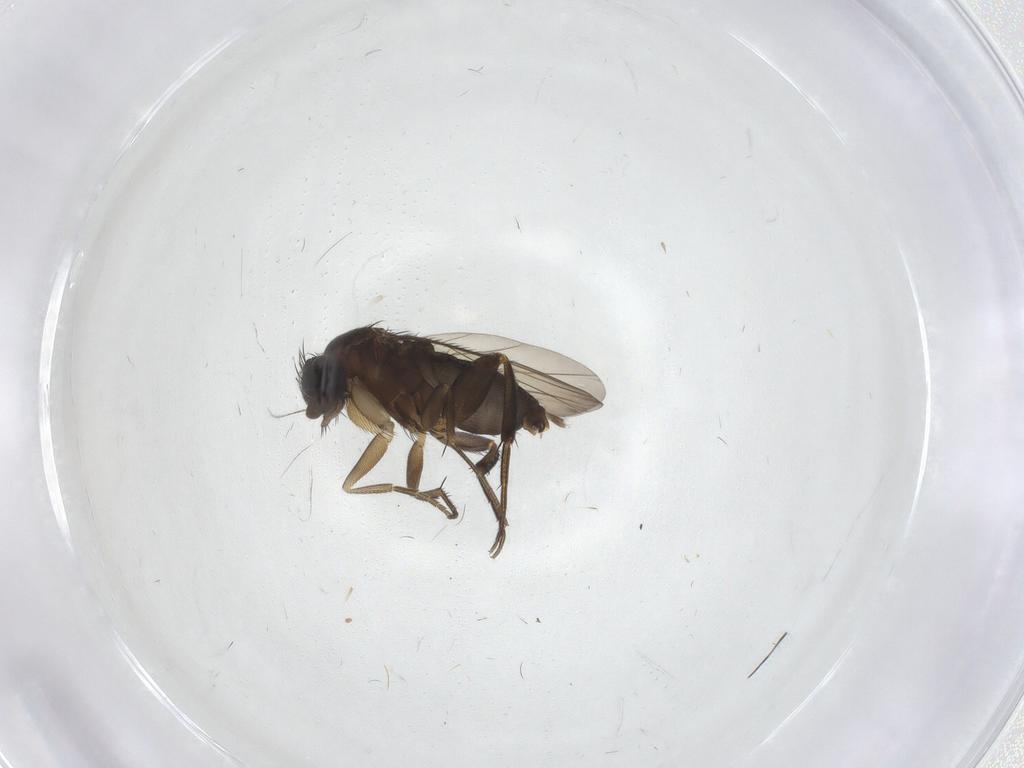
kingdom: Animalia
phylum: Arthropoda
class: Insecta
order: Diptera
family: Phoridae
